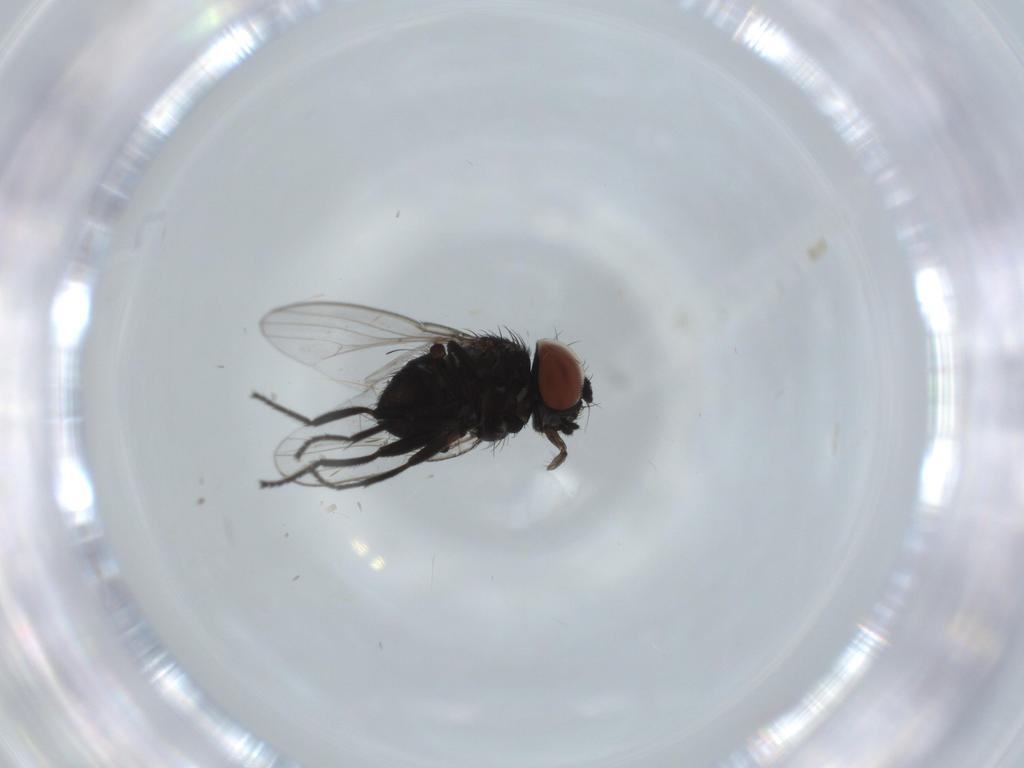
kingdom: Animalia
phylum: Arthropoda
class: Insecta
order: Diptera
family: Milichiidae
